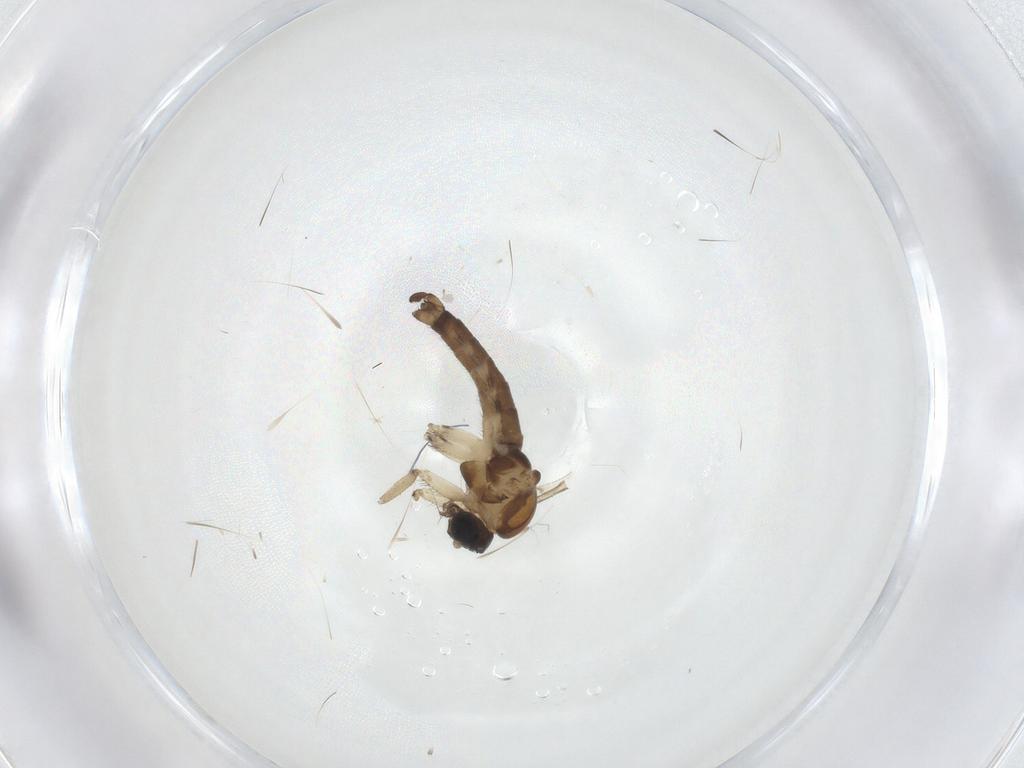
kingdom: Animalia
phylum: Arthropoda
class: Insecta
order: Diptera
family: Sciaridae
